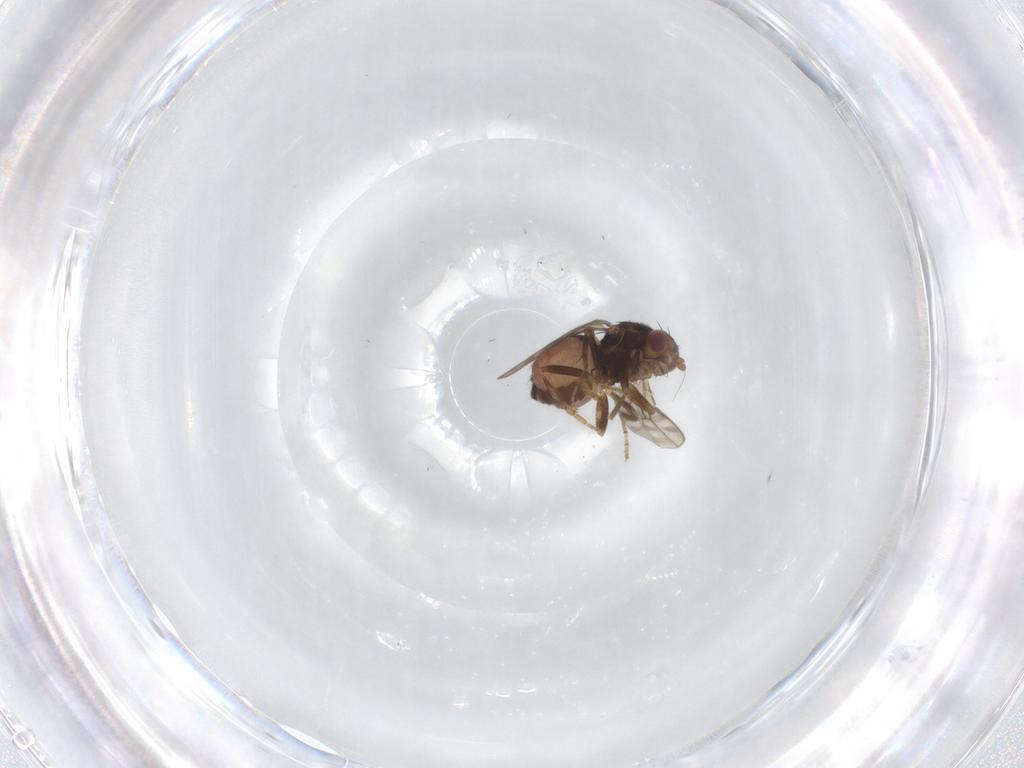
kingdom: Animalia
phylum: Arthropoda
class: Insecta
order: Diptera
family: Sphaeroceridae
